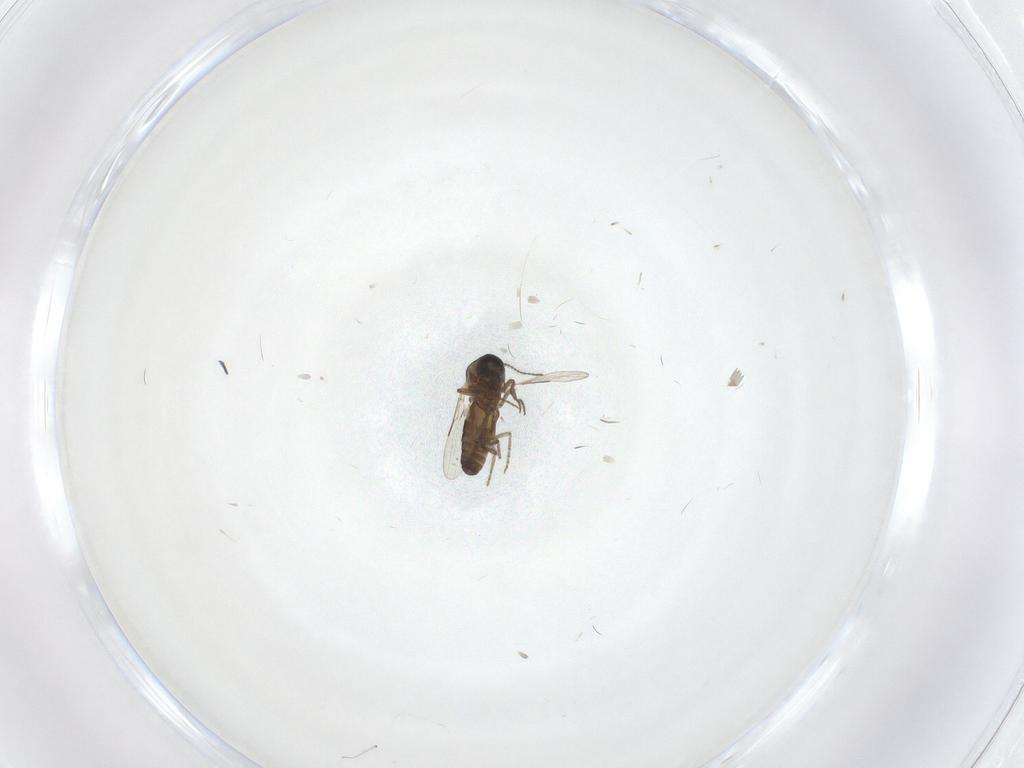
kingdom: Animalia
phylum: Arthropoda
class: Insecta
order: Diptera
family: Ceratopogonidae
